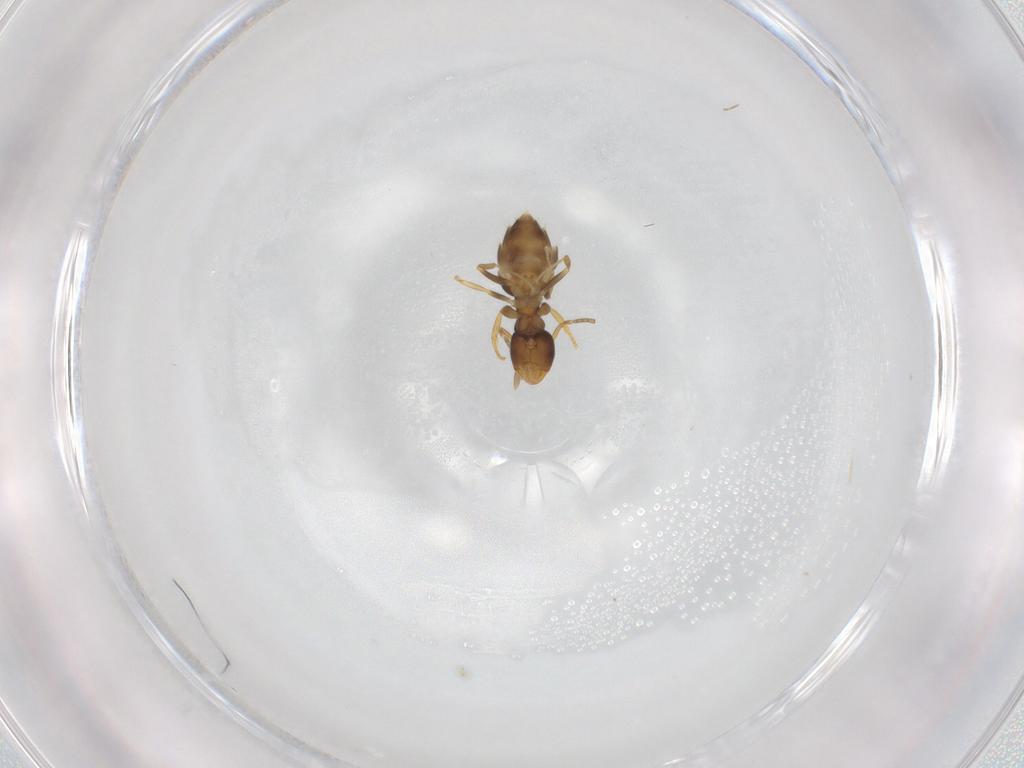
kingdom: Animalia
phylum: Arthropoda
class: Insecta
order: Hymenoptera
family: Formicidae
